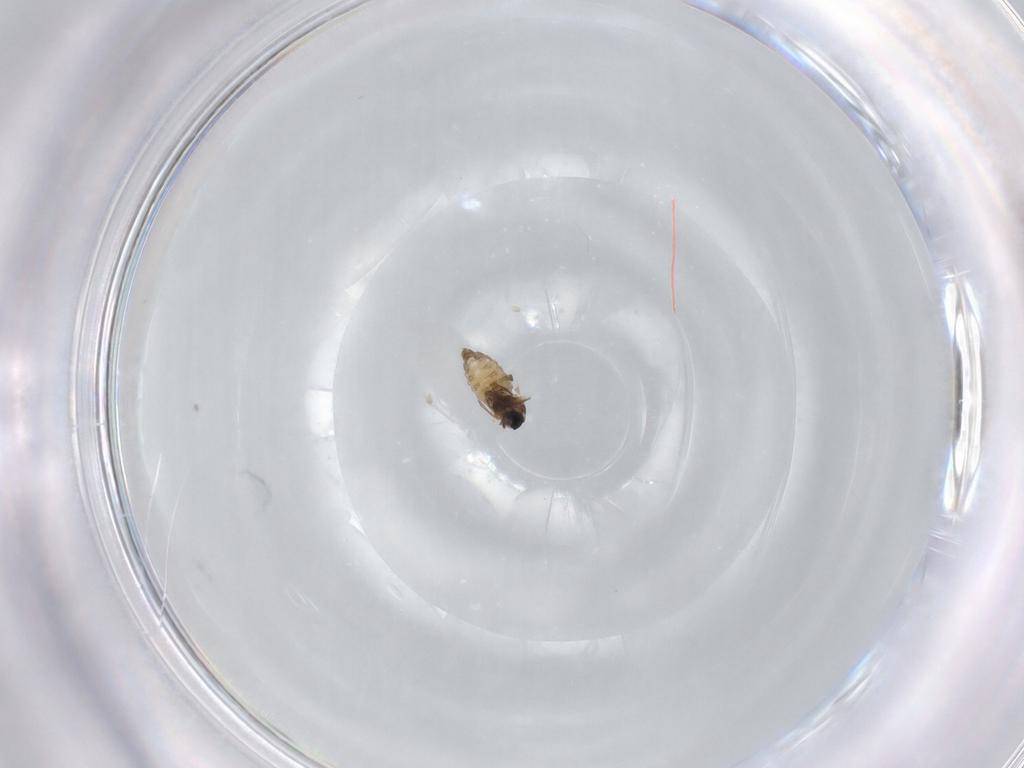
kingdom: Animalia
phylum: Arthropoda
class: Insecta
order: Diptera
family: Cecidomyiidae
